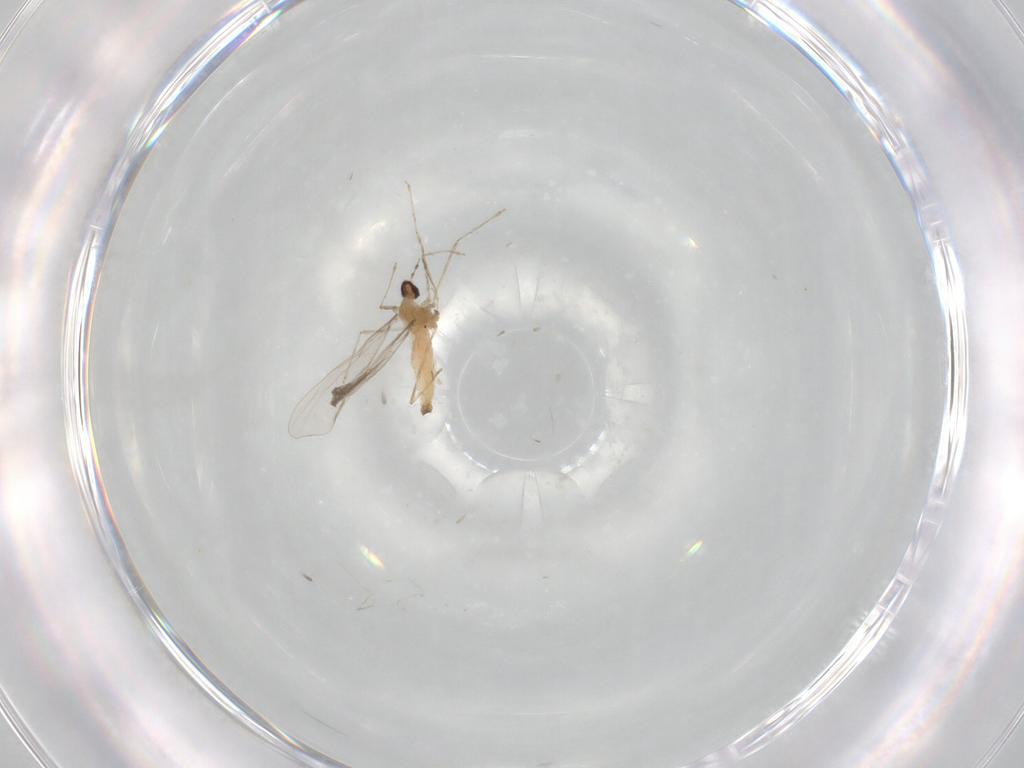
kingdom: Animalia
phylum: Arthropoda
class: Insecta
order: Diptera
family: Cecidomyiidae
